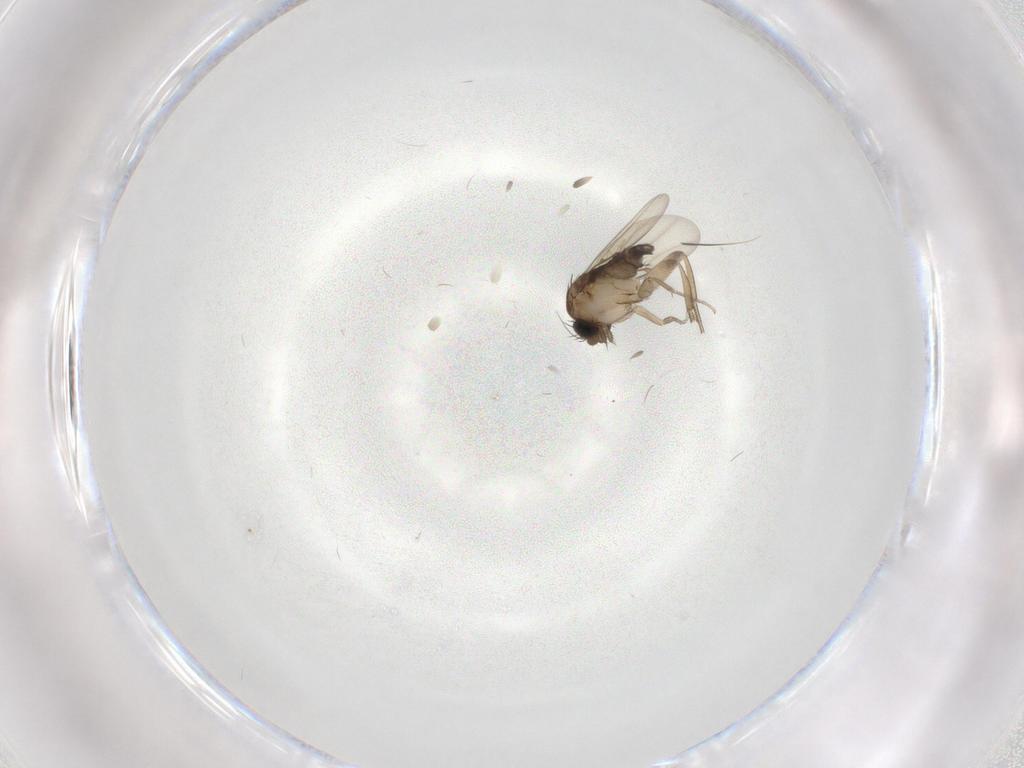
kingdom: Animalia
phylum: Arthropoda
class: Insecta
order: Diptera
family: Phoridae
